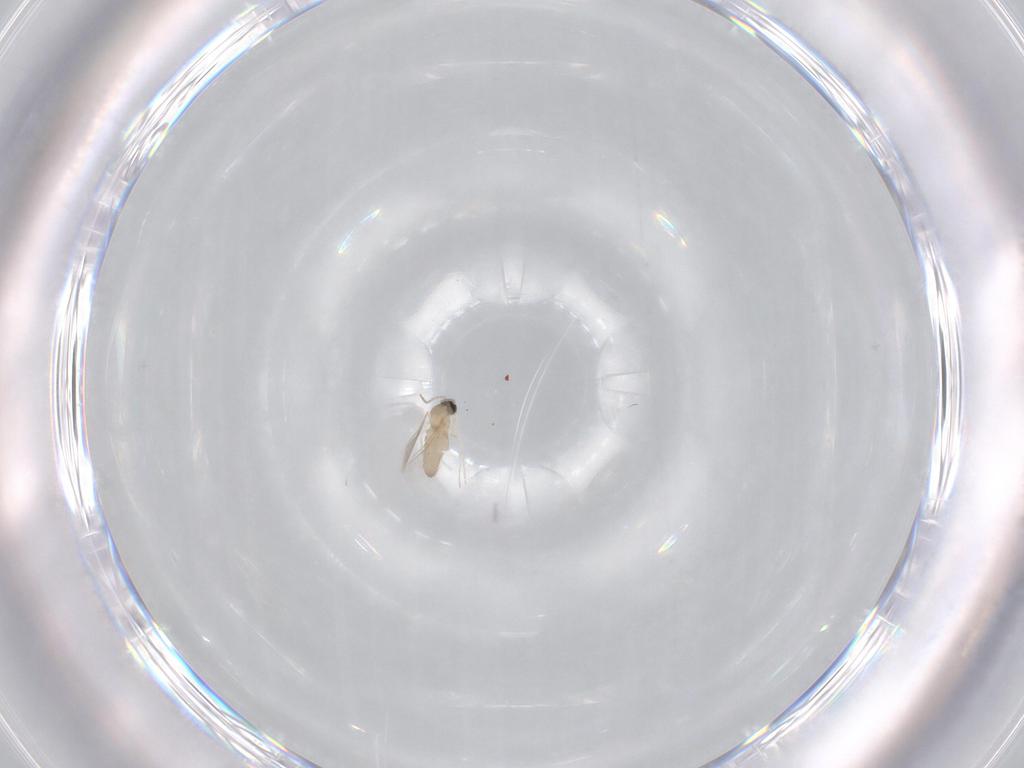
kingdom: Animalia
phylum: Arthropoda
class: Insecta
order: Diptera
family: Cecidomyiidae
